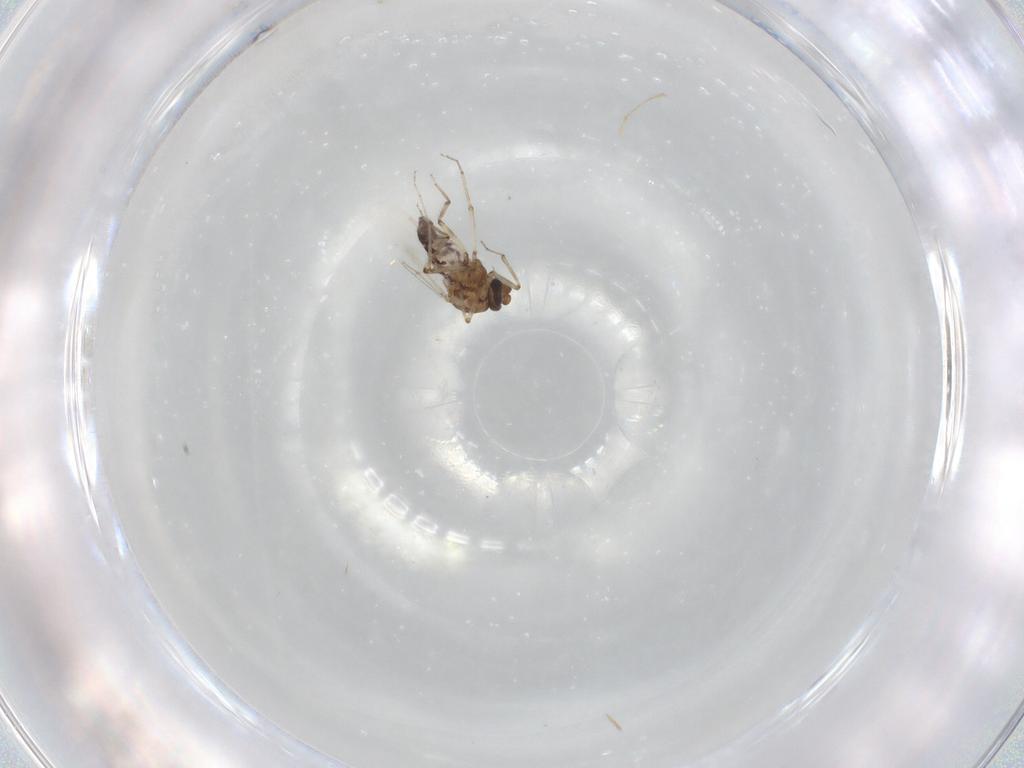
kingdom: Animalia
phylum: Arthropoda
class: Insecta
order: Diptera
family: Ceratopogonidae
